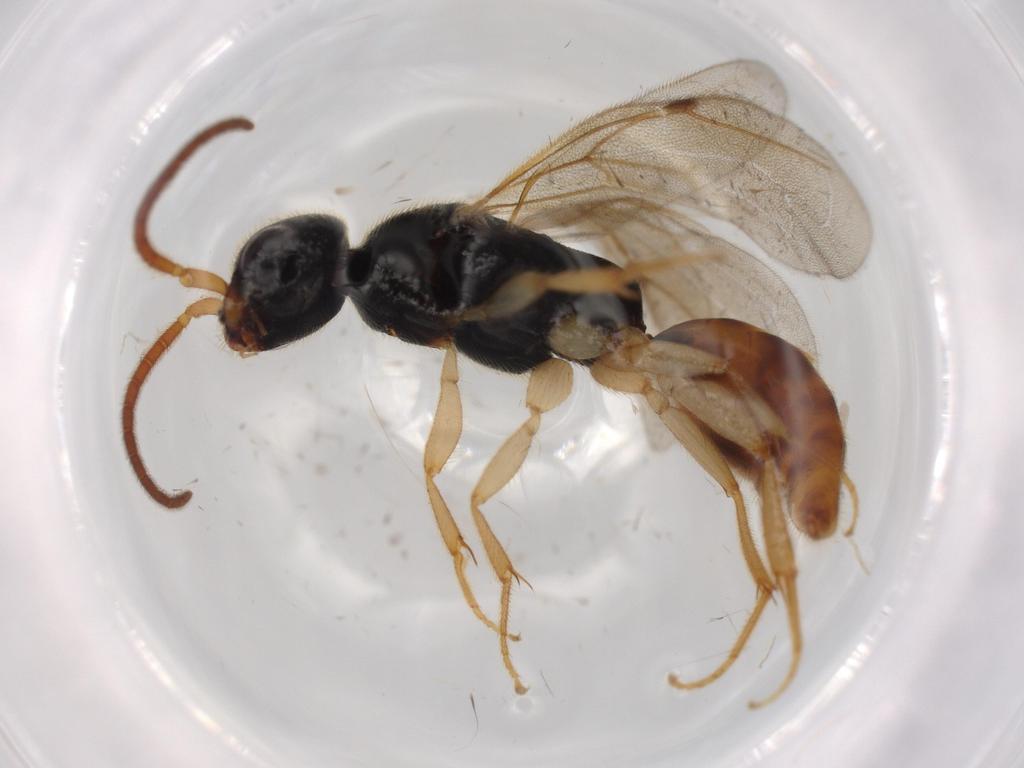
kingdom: Animalia
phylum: Arthropoda
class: Insecta
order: Hymenoptera
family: Bethylidae
